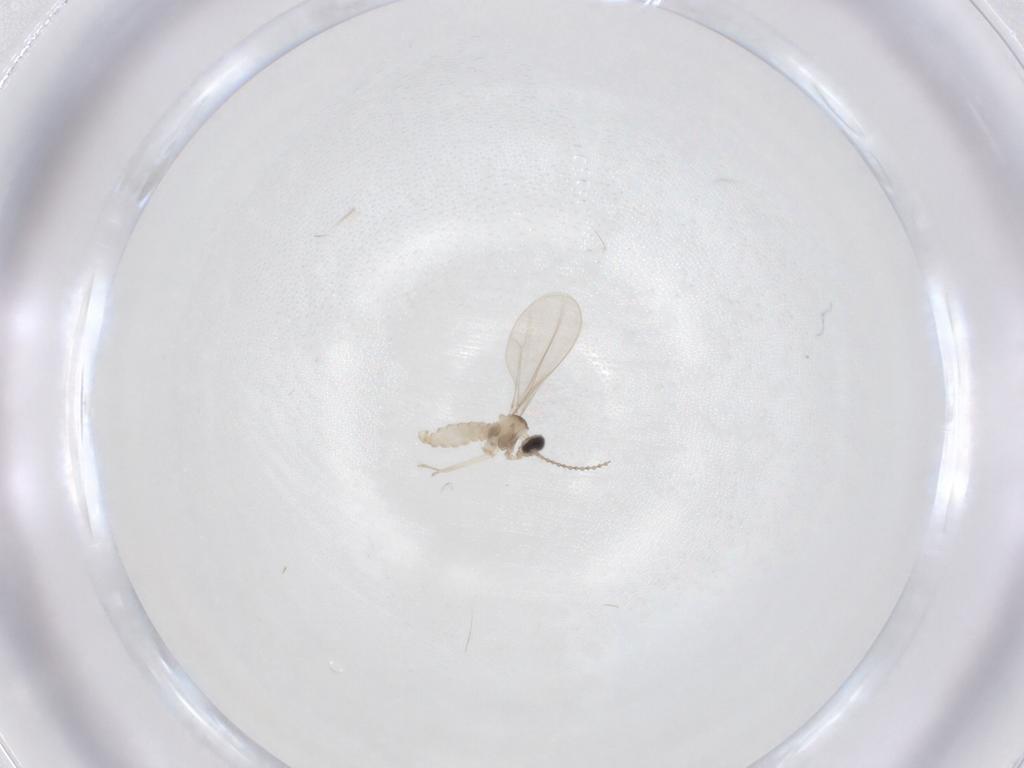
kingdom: Animalia
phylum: Arthropoda
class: Insecta
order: Diptera
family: Cecidomyiidae
